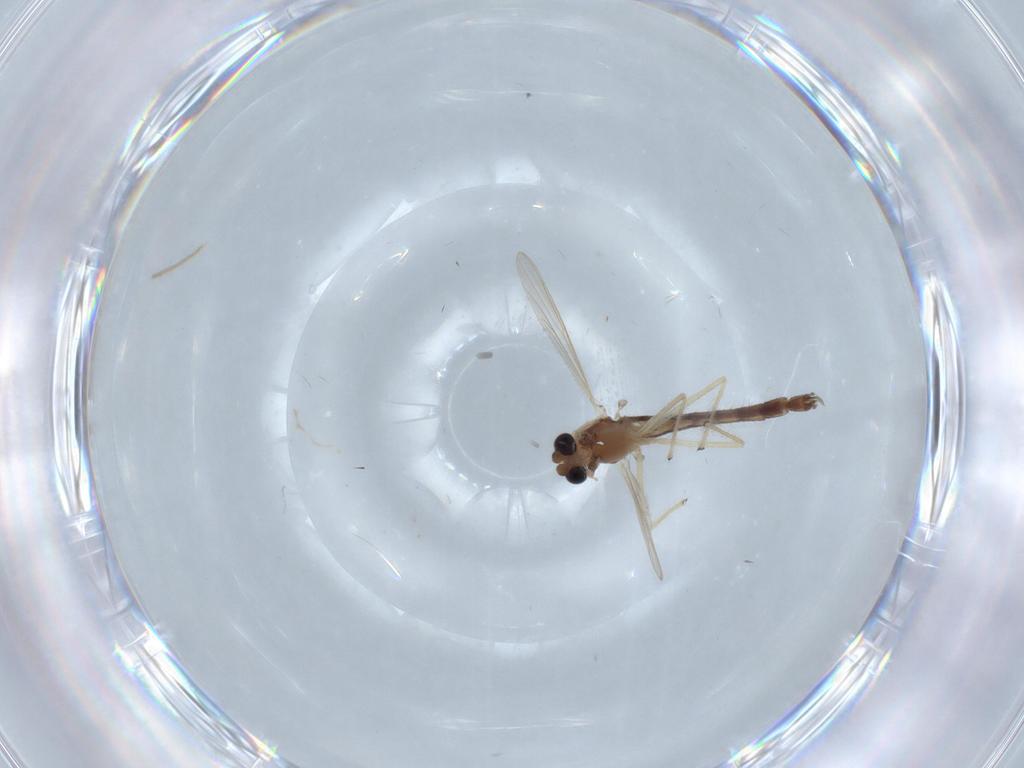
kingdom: Animalia
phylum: Arthropoda
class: Insecta
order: Diptera
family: Chironomidae
